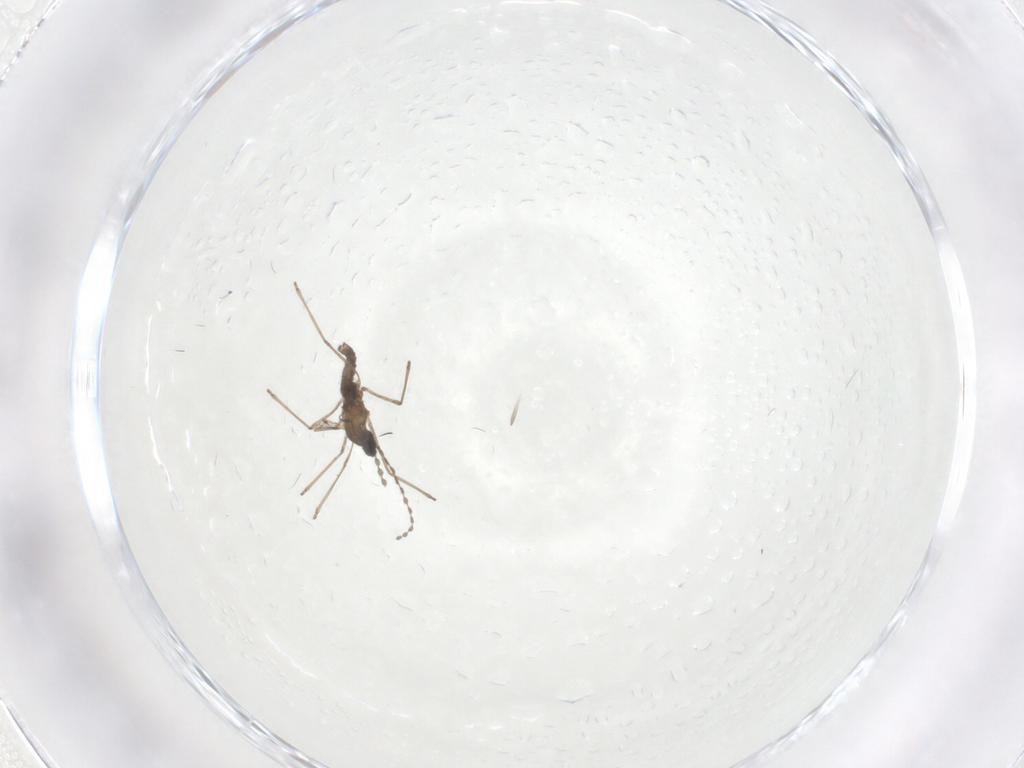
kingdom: Animalia
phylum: Arthropoda
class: Insecta
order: Diptera
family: Cecidomyiidae
